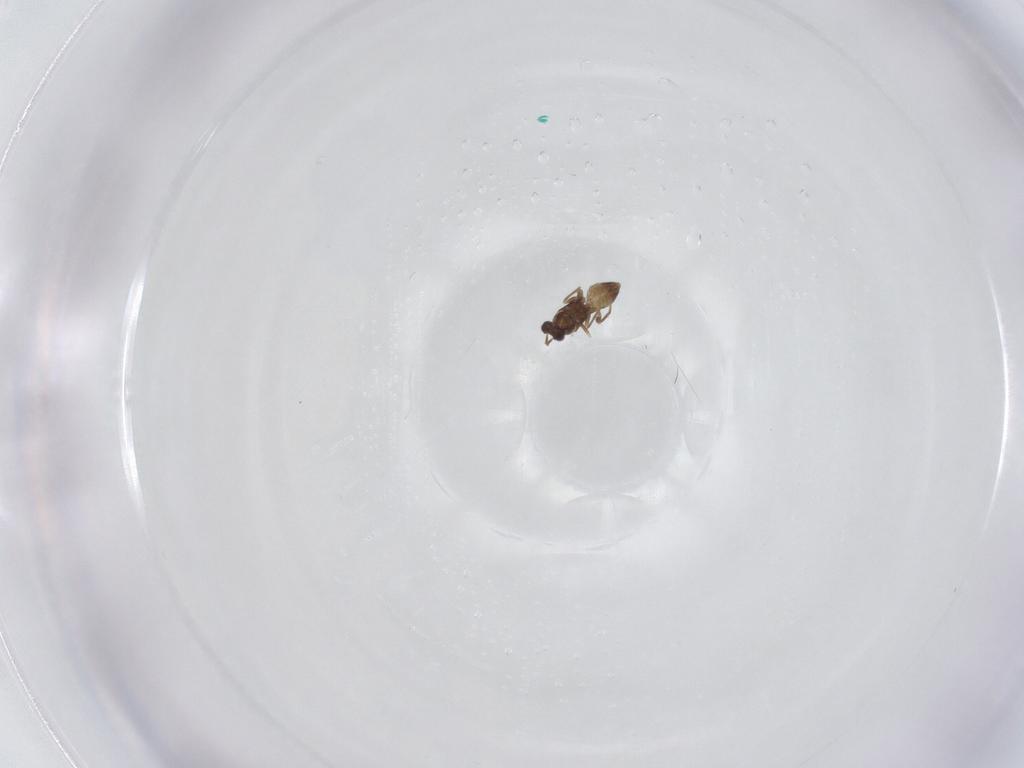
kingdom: Animalia
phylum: Arthropoda
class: Insecta
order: Hymenoptera
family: Mymaridae
